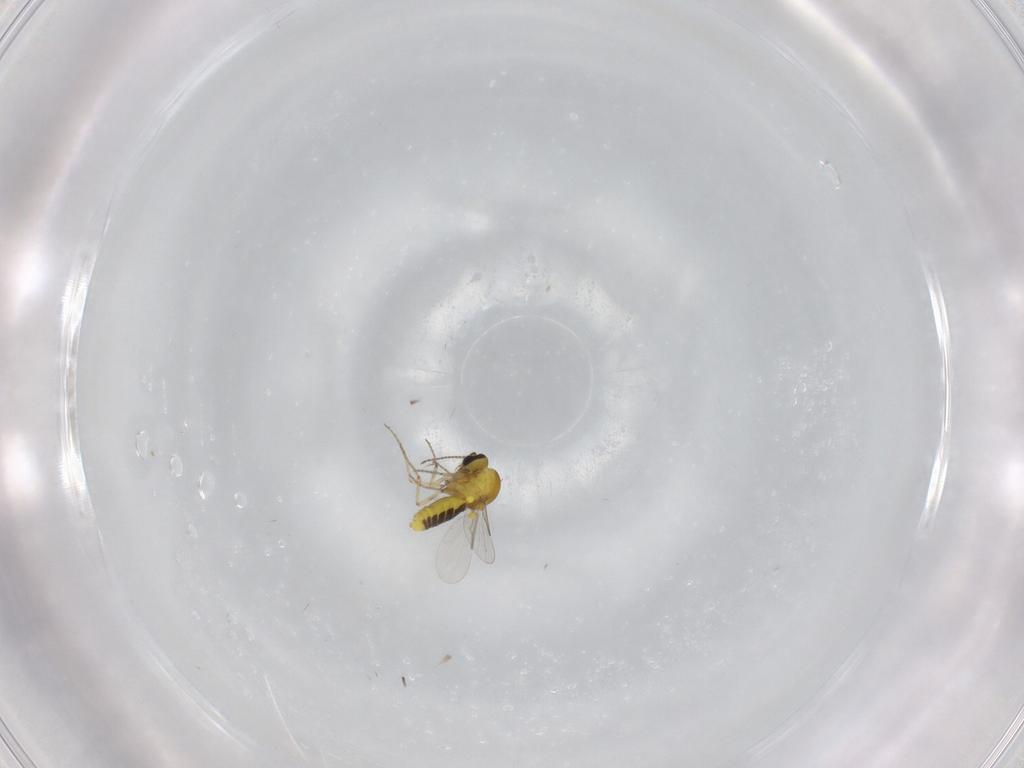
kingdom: Animalia
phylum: Arthropoda
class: Insecta
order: Diptera
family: Ceratopogonidae
